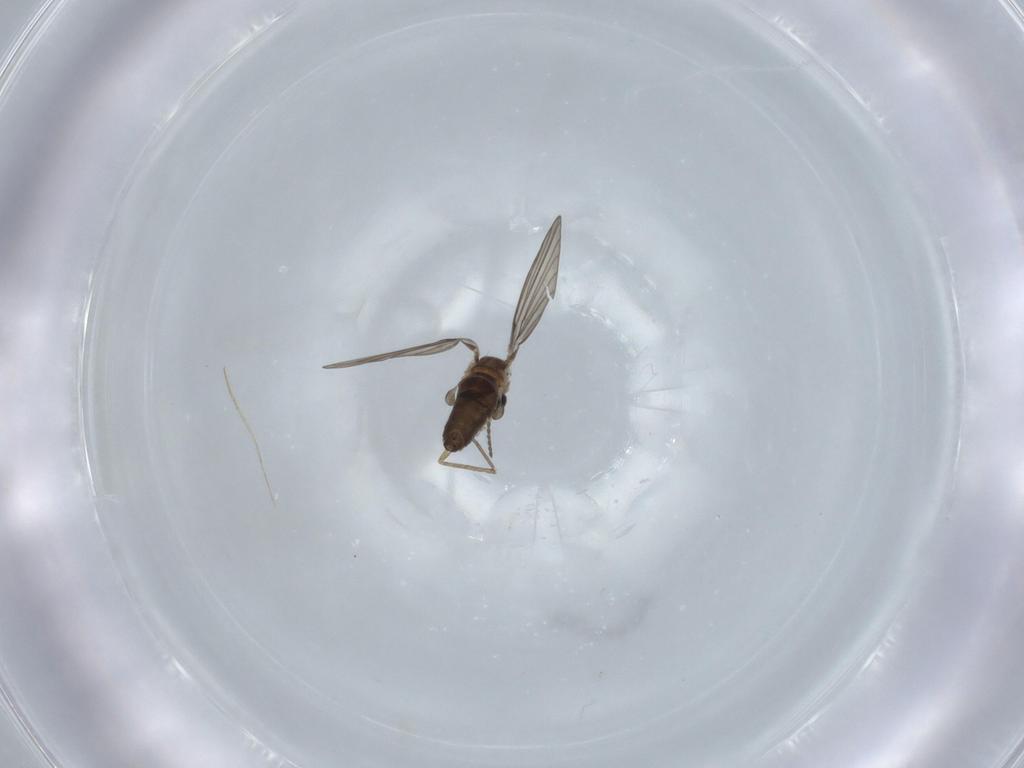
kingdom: Animalia
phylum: Arthropoda
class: Insecta
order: Diptera
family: Psychodidae
